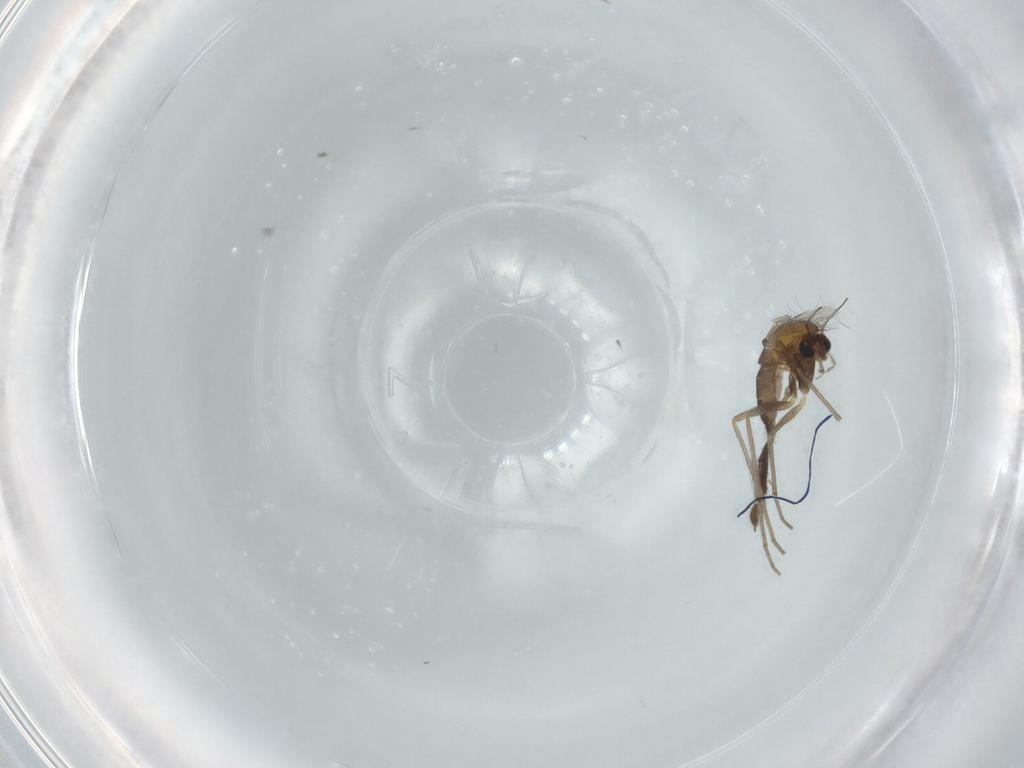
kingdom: Animalia
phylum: Arthropoda
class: Insecta
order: Diptera
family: Chironomidae
